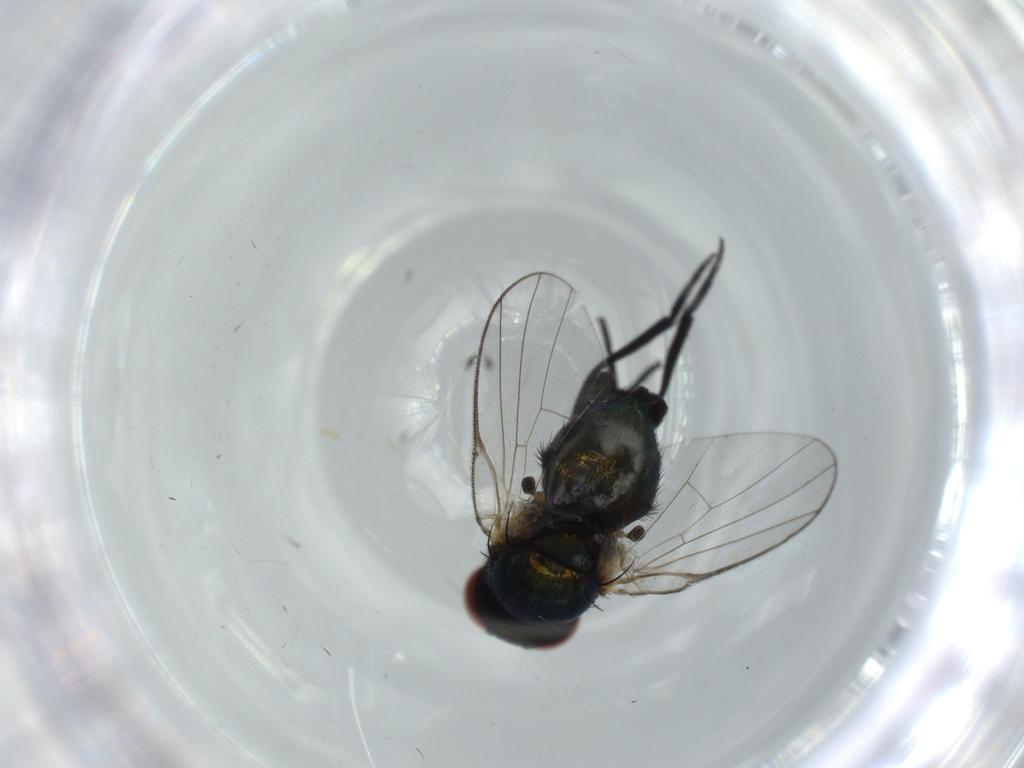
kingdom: Animalia
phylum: Arthropoda
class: Insecta
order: Diptera
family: Agromyzidae
